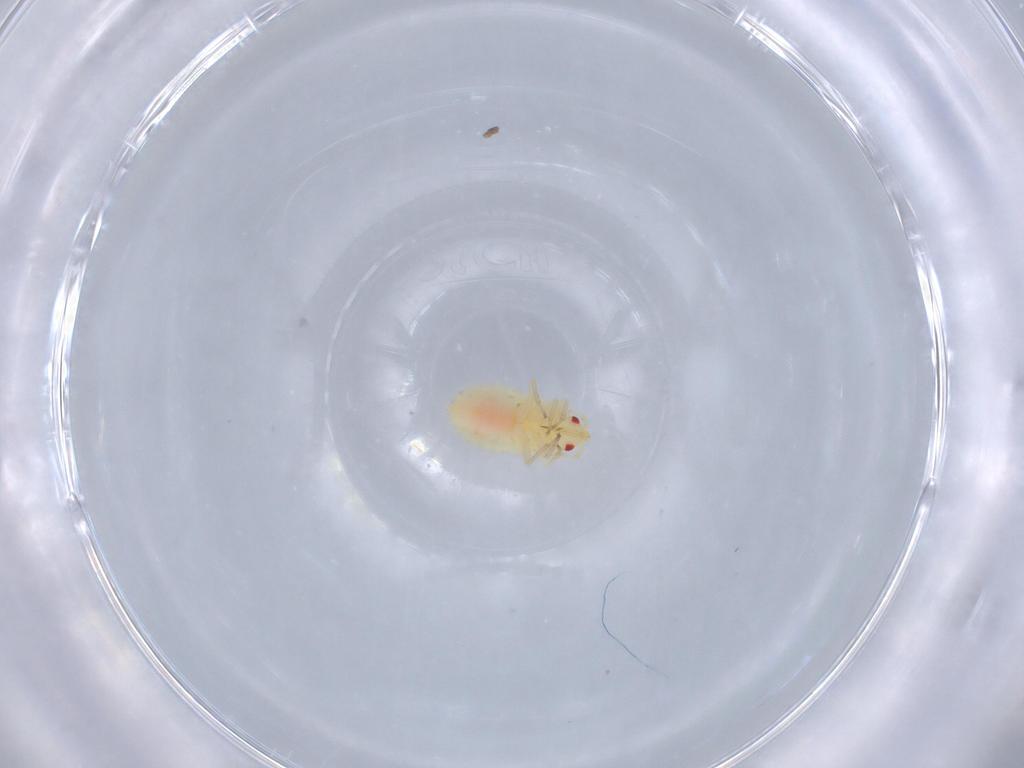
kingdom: Animalia
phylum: Arthropoda
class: Insecta
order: Hemiptera
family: Anthocoridae
